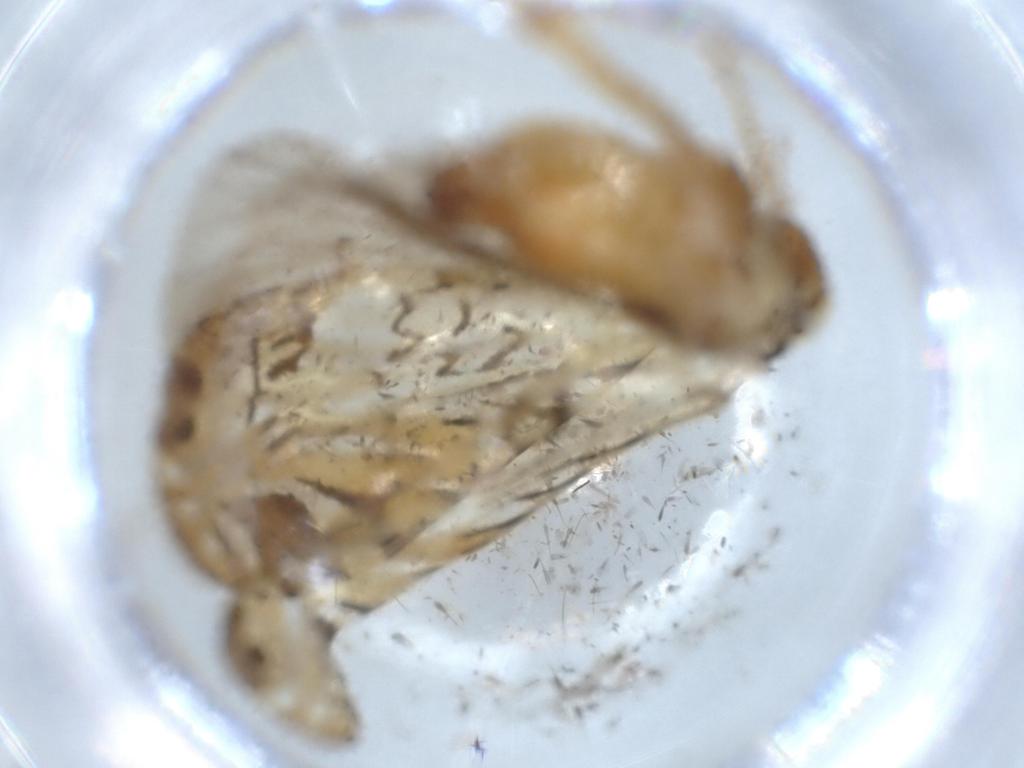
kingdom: Animalia
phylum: Arthropoda
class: Insecta
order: Hemiptera
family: Cixiidae
